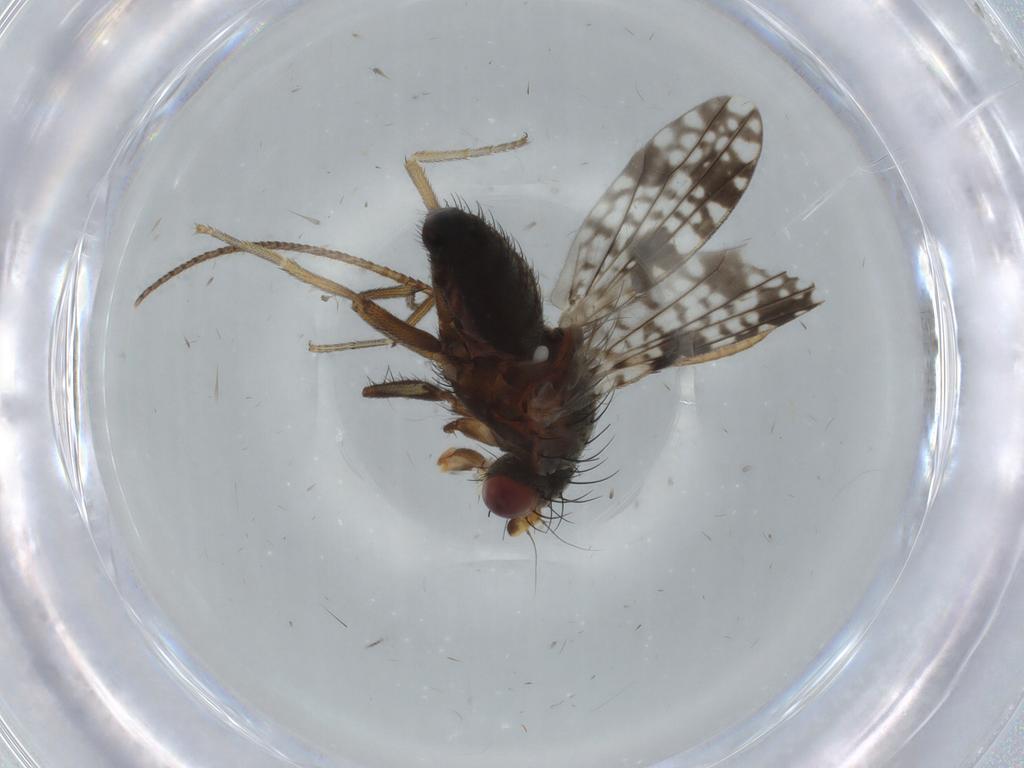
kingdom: Animalia
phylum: Arthropoda
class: Insecta
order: Diptera
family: Tephritidae
